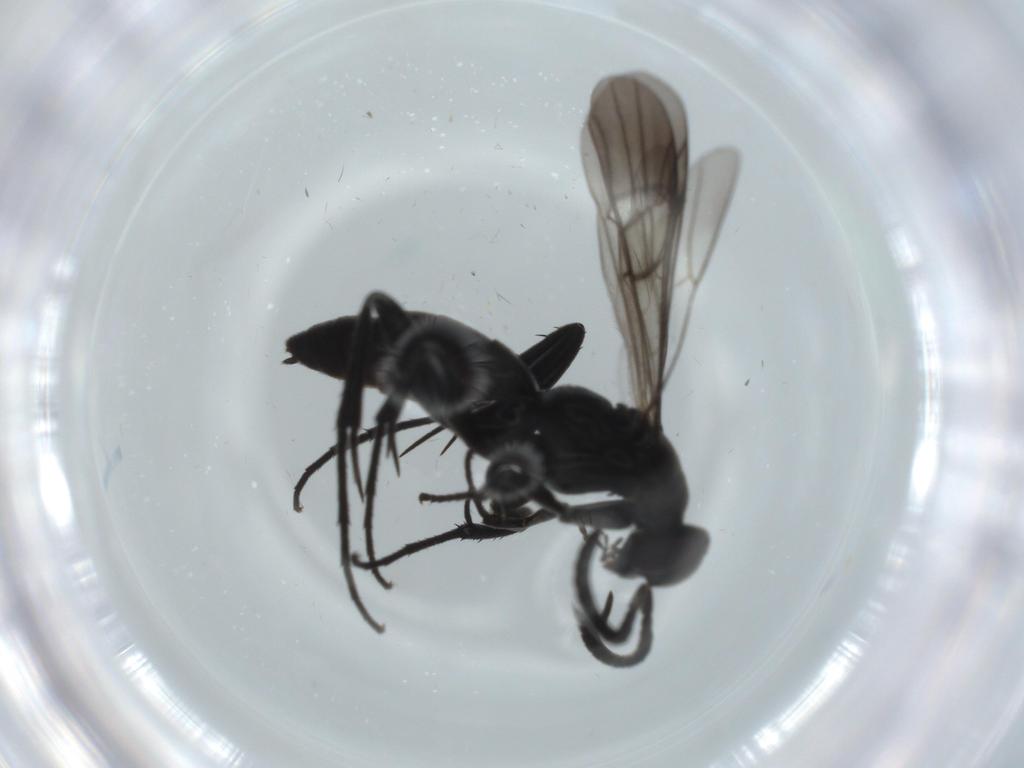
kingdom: Animalia
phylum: Arthropoda
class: Insecta
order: Hymenoptera
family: Pompilidae
